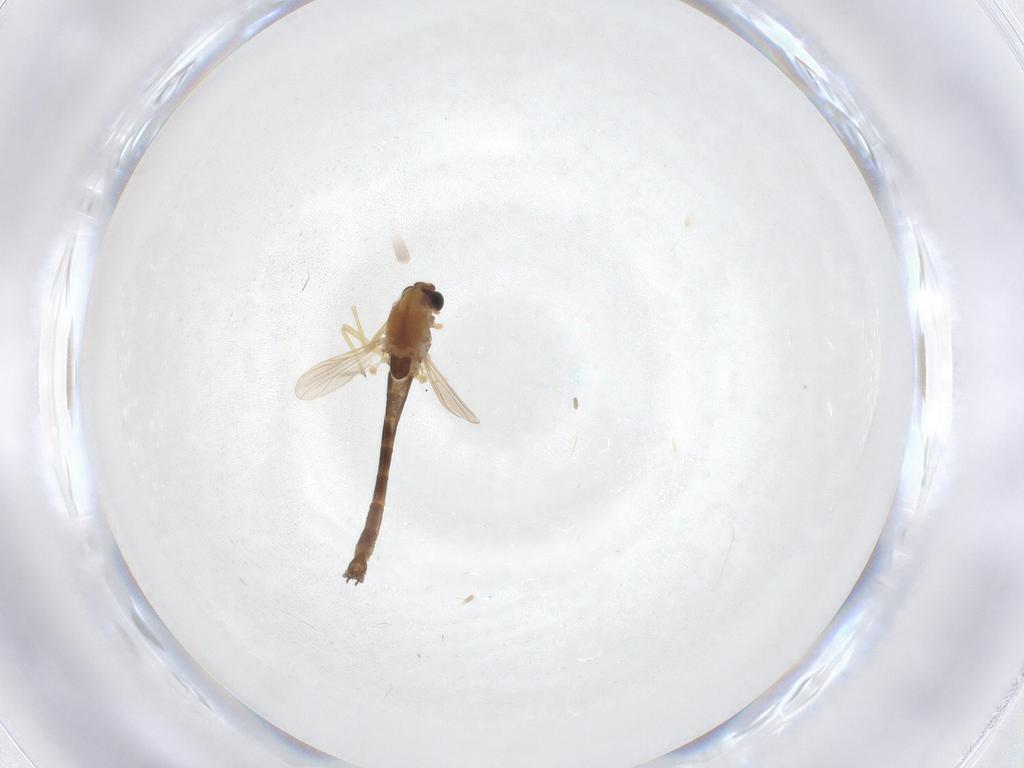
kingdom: Animalia
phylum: Arthropoda
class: Insecta
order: Diptera
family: Chironomidae
